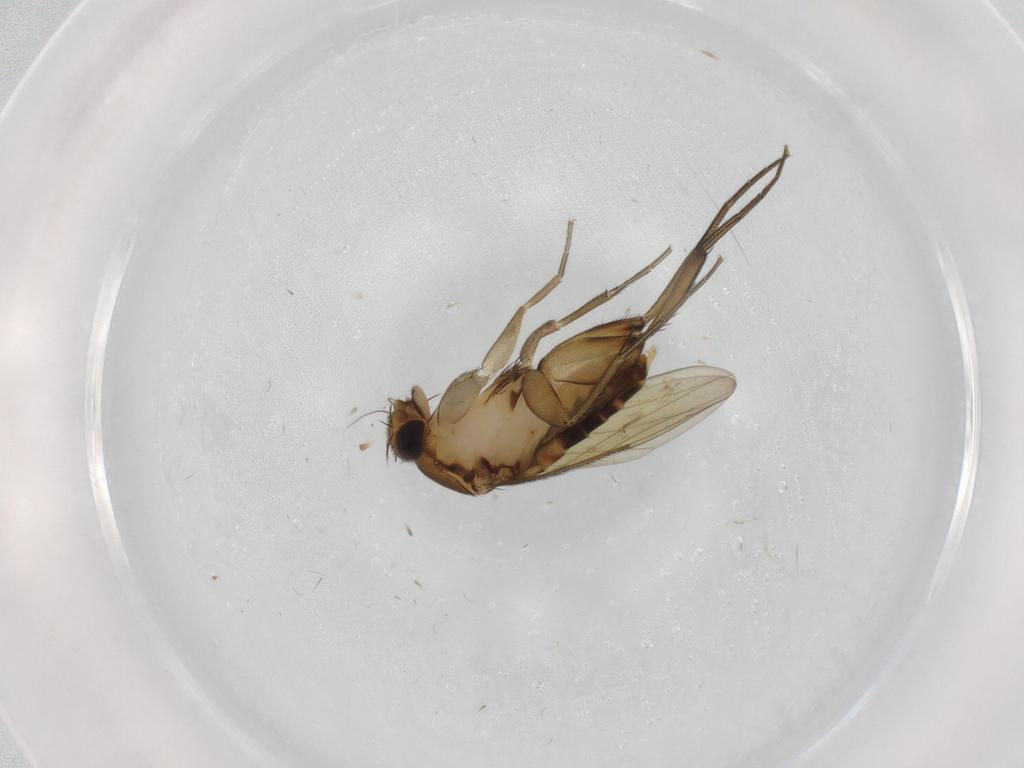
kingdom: Animalia
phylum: Arthropoda
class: Insecta
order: Diptera
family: Phoridae
